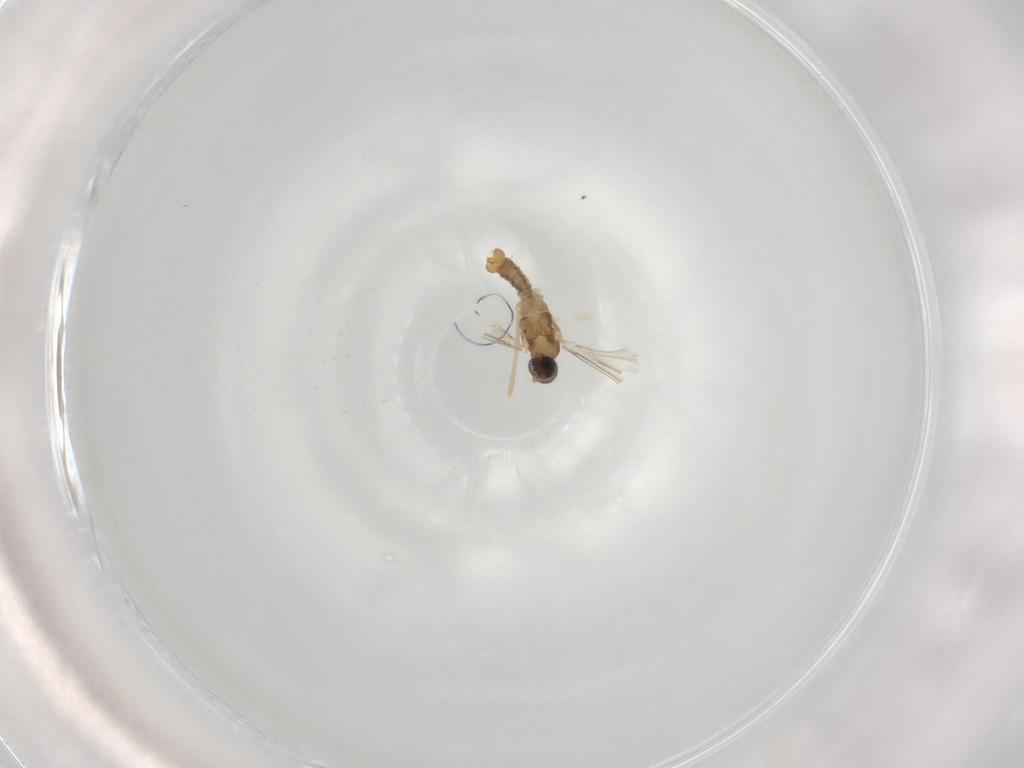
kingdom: Animalia
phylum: Arthropoda
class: Insecta
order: Diptera
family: Cecidomyiidae
